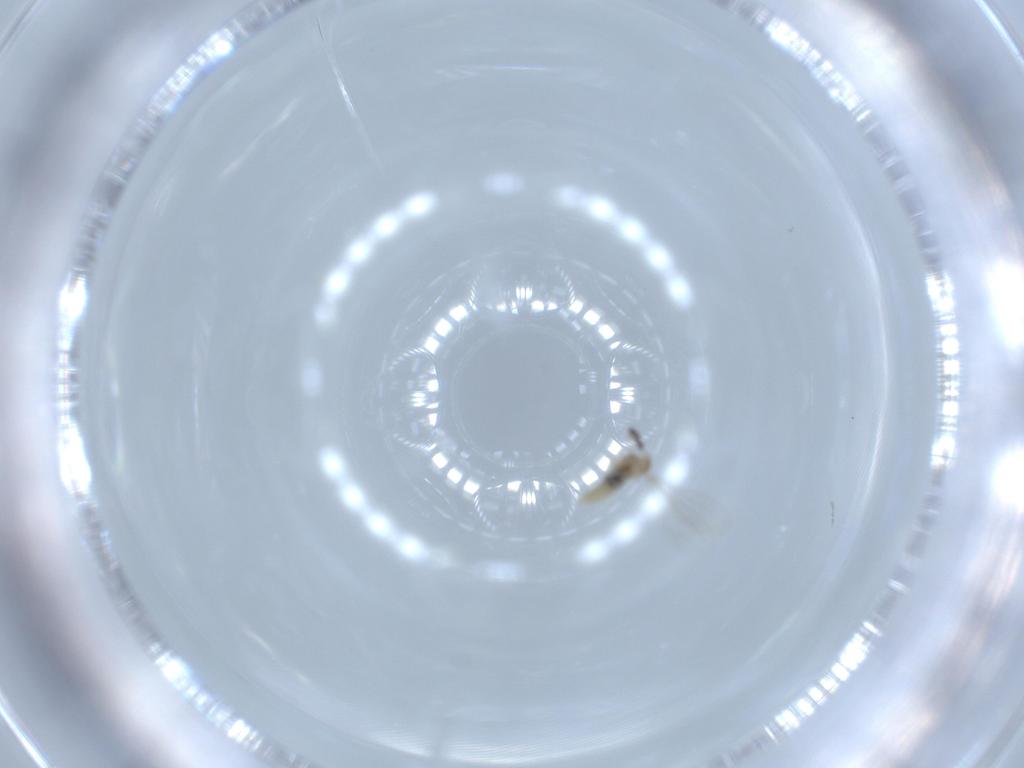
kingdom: Animalia
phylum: Arthropoda
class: Insecta
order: Diptera
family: Cecidomyiidae
